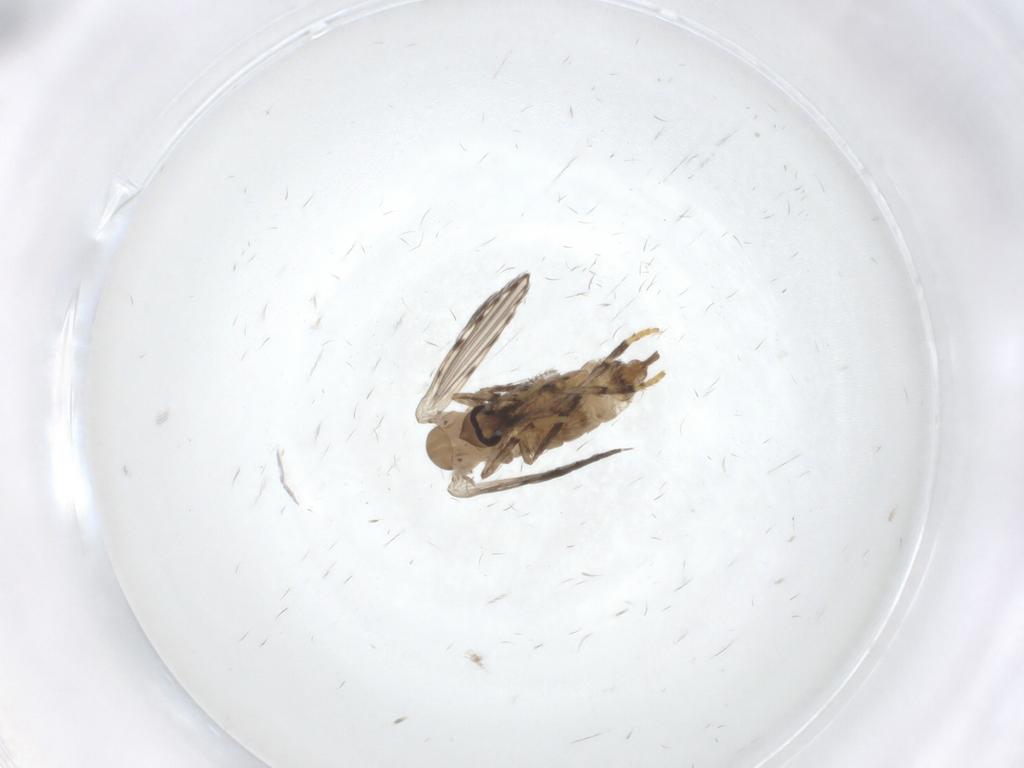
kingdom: Animalia
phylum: Arthropoda
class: Insecta
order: Diptera
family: Psychodidae
